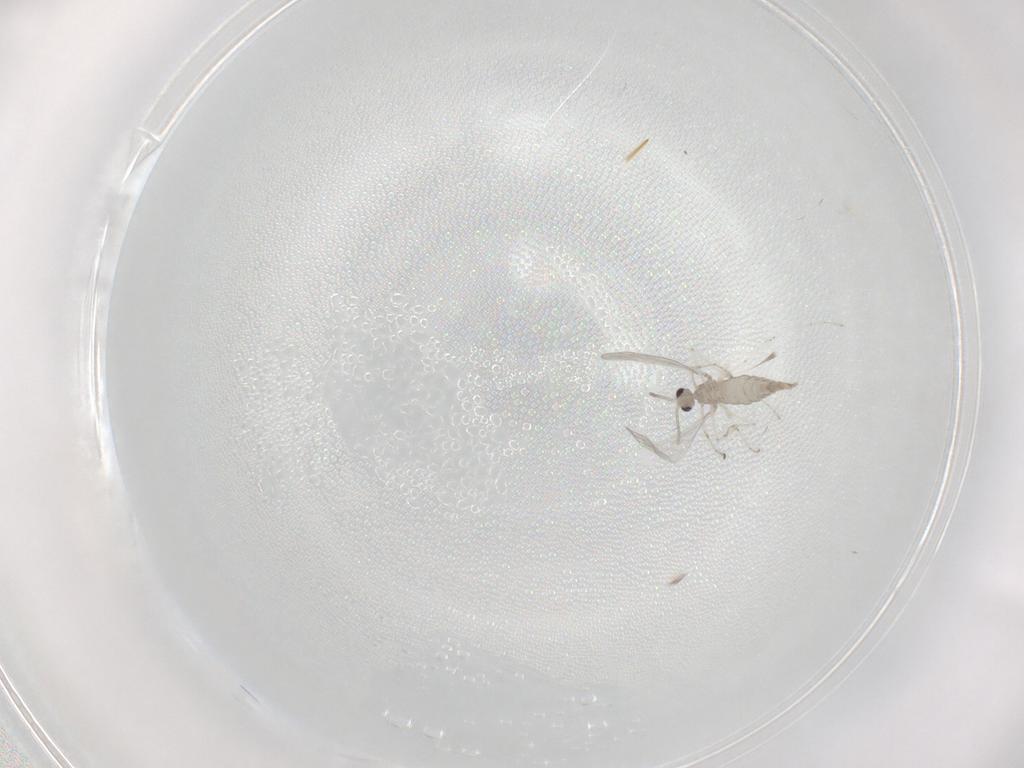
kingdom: Animalia
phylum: Arthropoda
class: Insecta
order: Diptera
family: Cecidomyiidae
